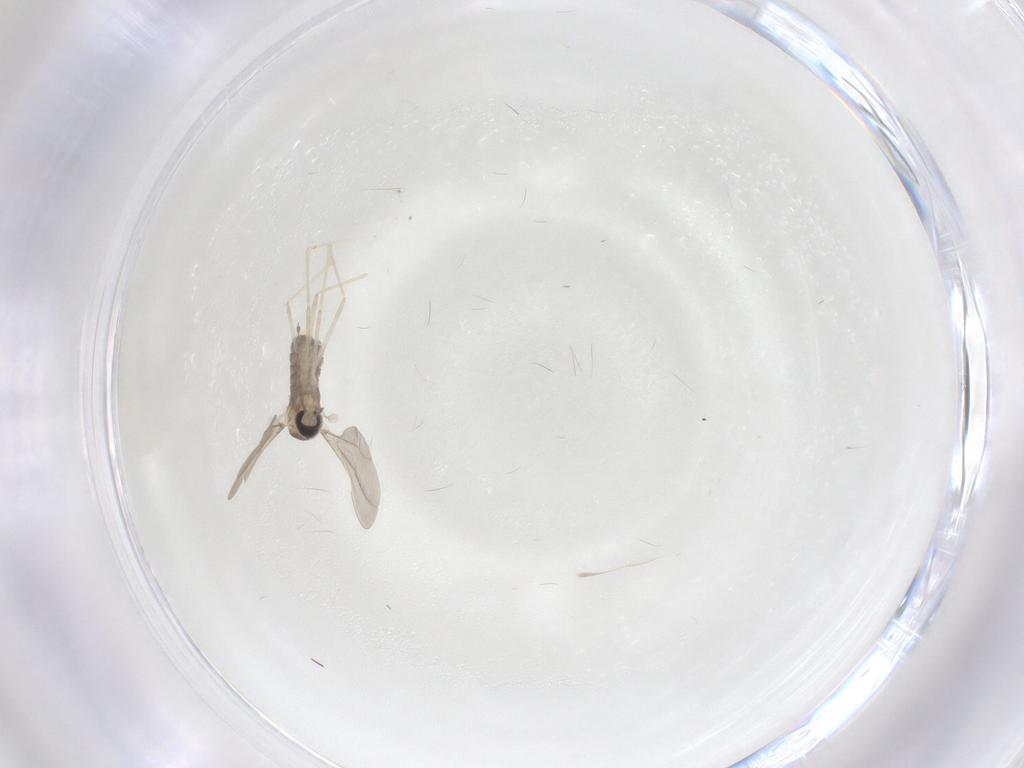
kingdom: Animalia
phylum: Arthropoda
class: Insecta
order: Diptera
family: Cecidomyiidae
